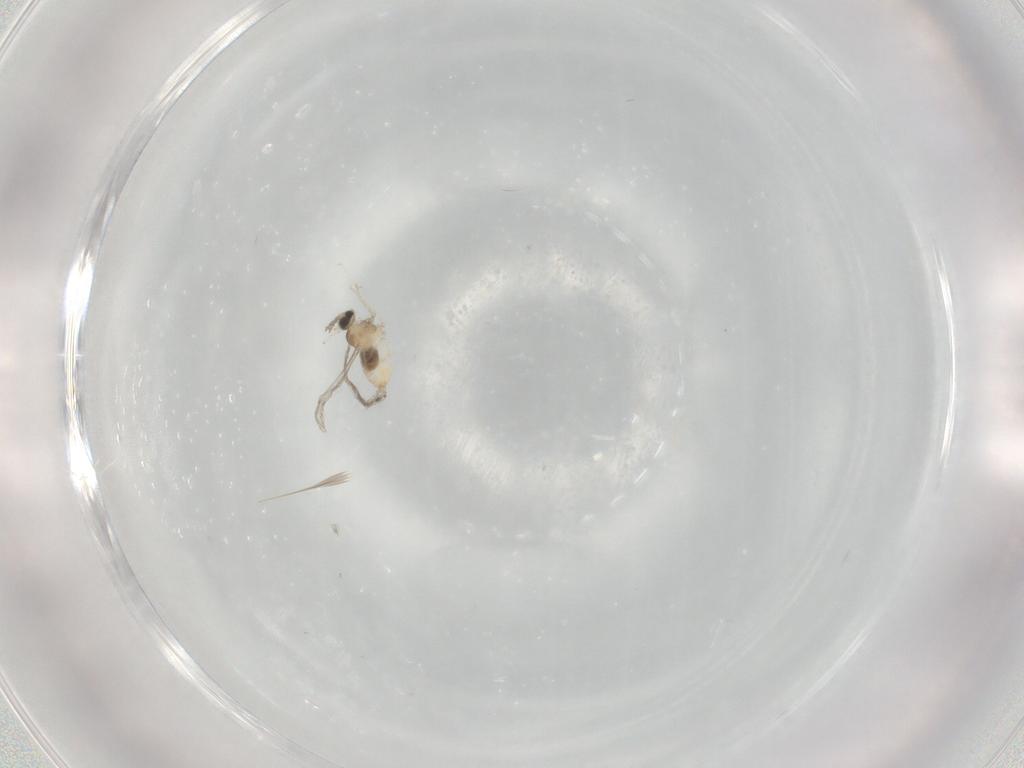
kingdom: Animalia
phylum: Arthropoda
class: Insecta
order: Diptera
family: Cecidomyiidae
